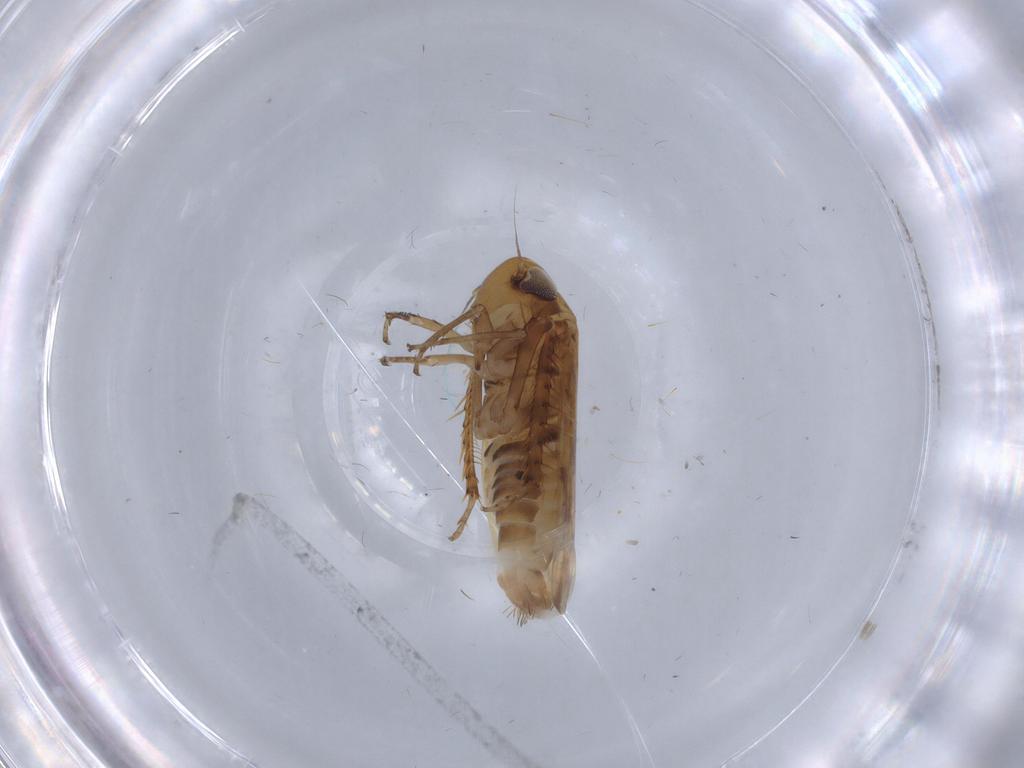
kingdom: Animalia
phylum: Arthropoda
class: Insecta
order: Hemiptera
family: Cicadellidae
